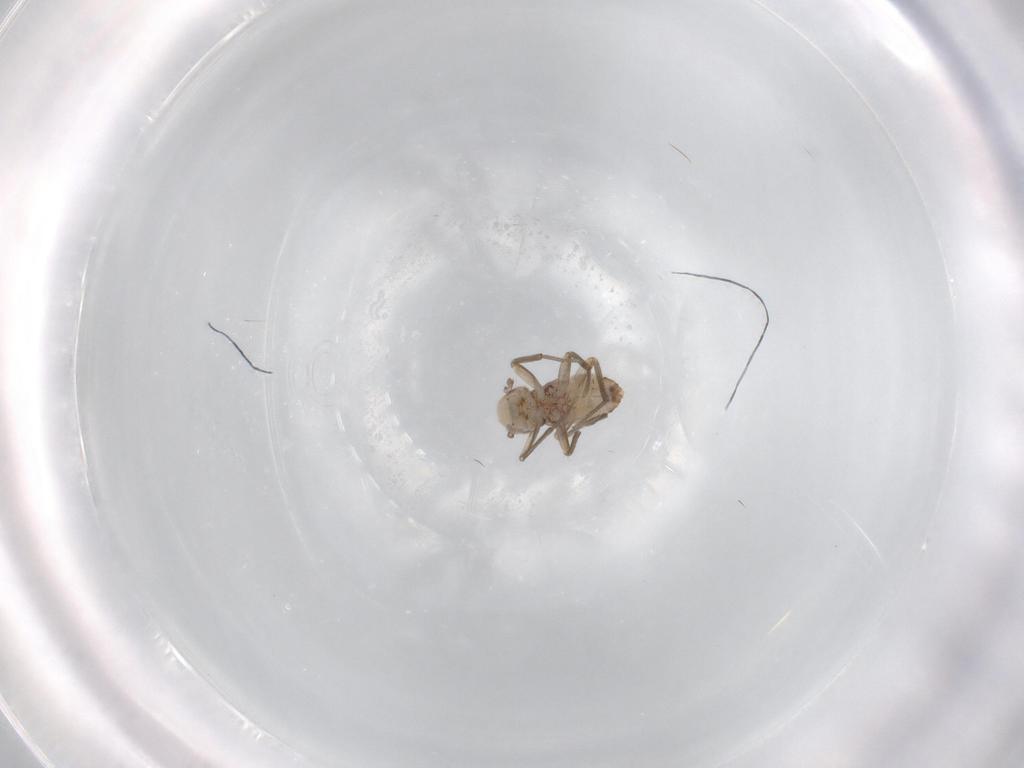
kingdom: Animalia
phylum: Arthropoda
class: Insecta
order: Psocodea
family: Mesopsocidae
